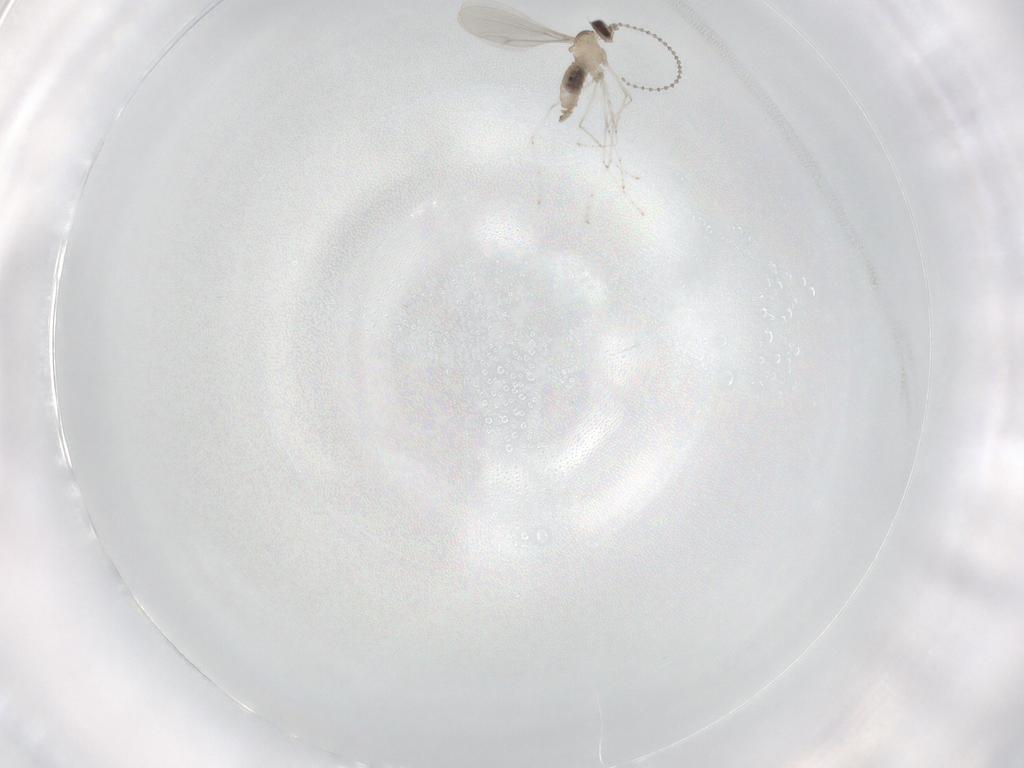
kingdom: Animalia
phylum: Arthropoda
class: Insecta
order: Diptera
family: Cecidomyiidae
